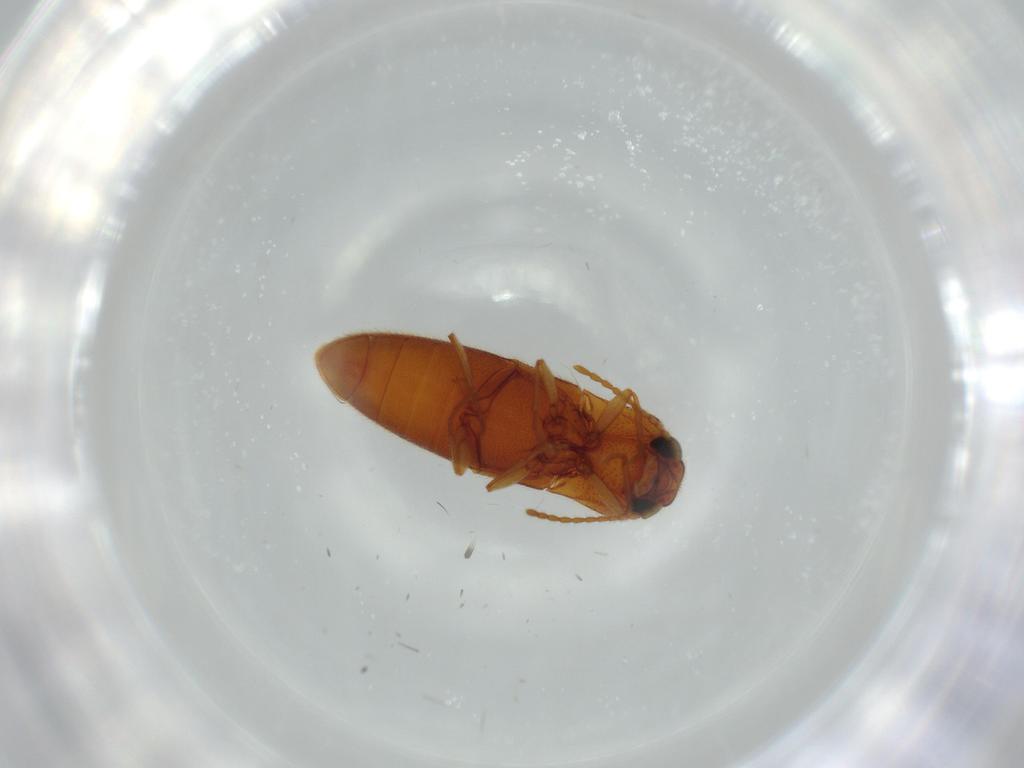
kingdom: Animalia
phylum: Arthropoda
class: Insecta
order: Coleoptera
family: Elateridae
